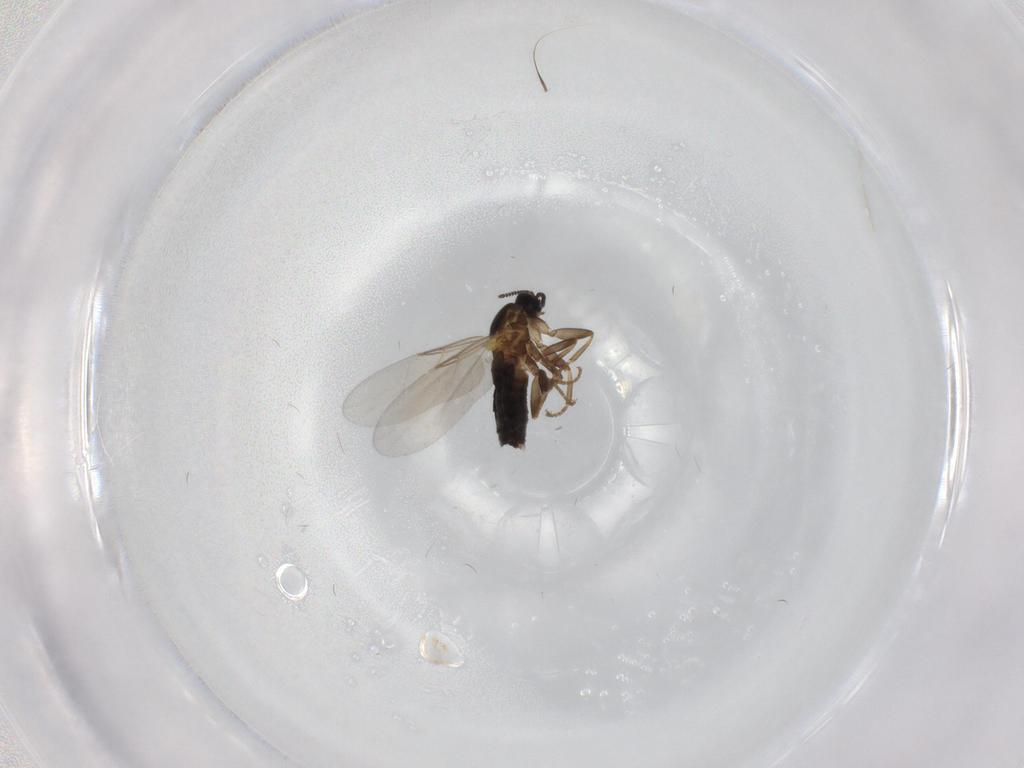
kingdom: Animalia
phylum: Arthropoda
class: Insecta
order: Diptera
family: Scatopsidae
